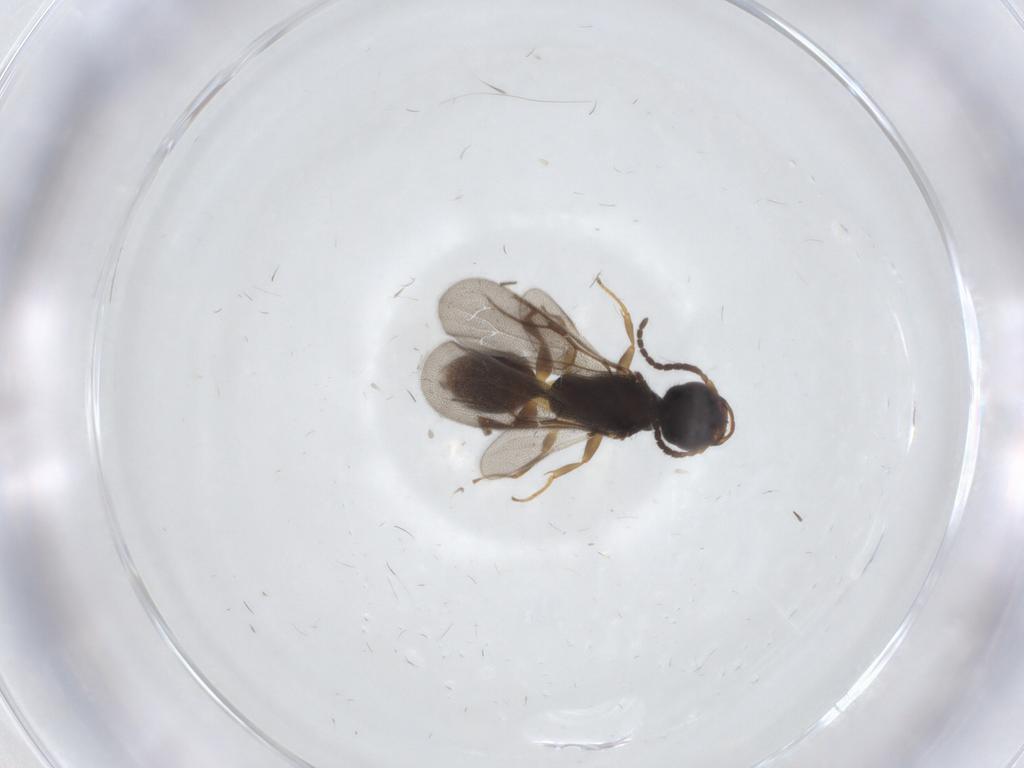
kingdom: Animalia
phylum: Arthropoda
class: Insecta
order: Hymenoptera
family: Bethylidae
